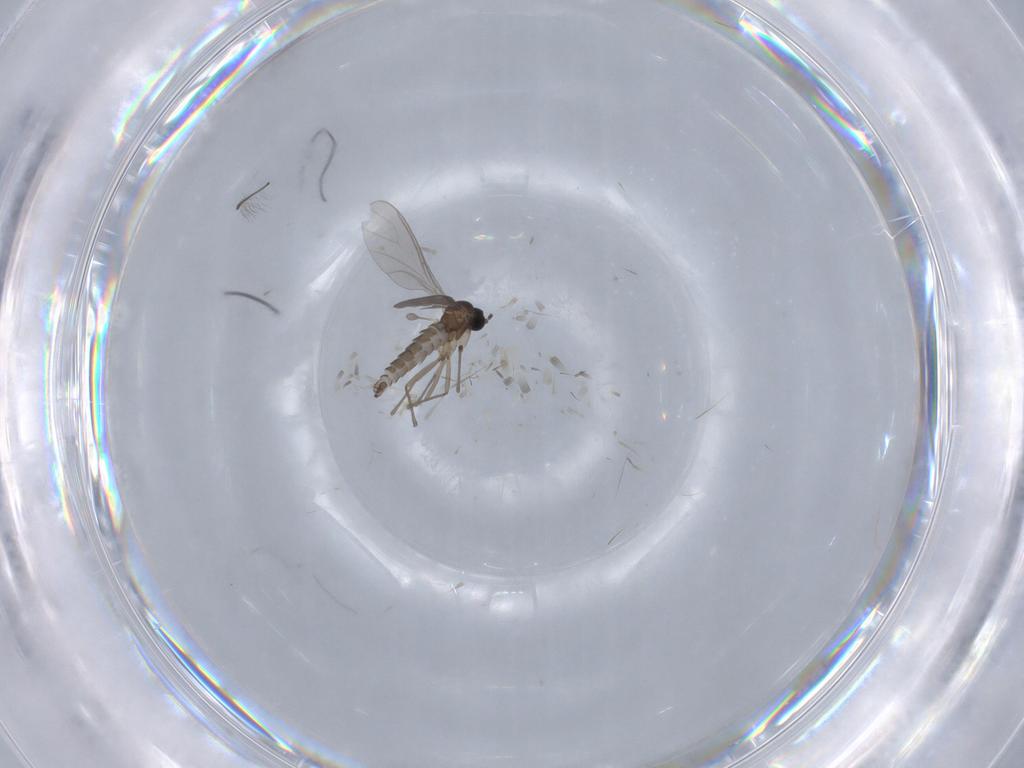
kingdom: Animalia
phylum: Arthropoda
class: Insecta
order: Diptera
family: Sciaridae
